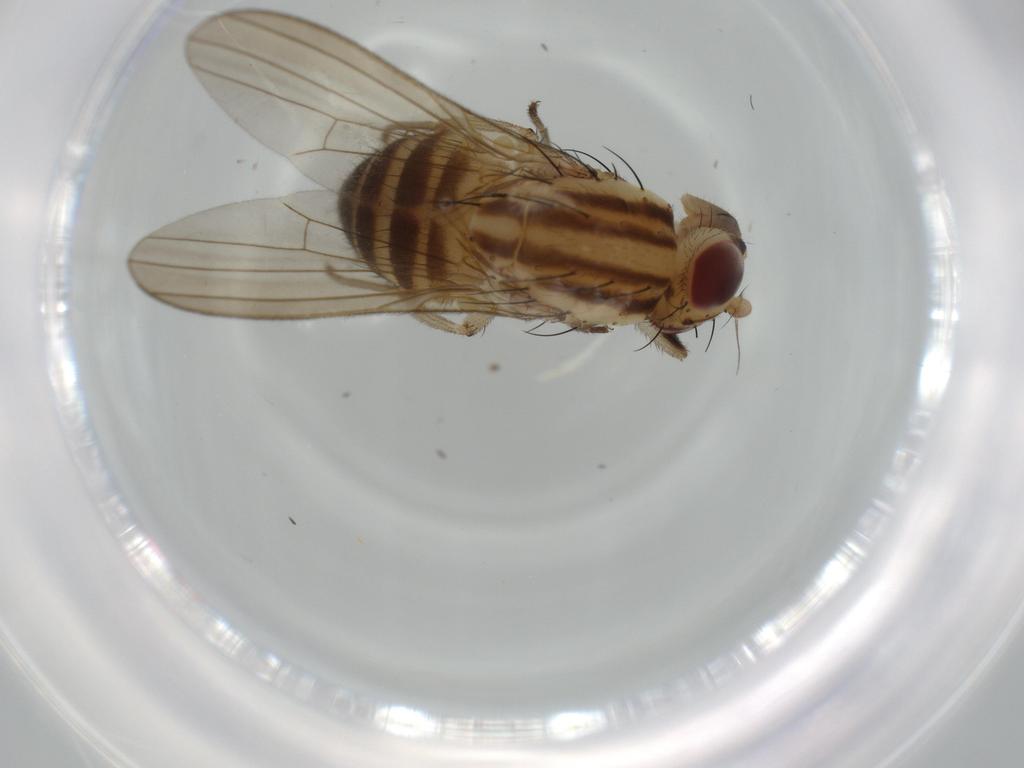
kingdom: Animalia
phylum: Arthropoda
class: Insecta
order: Diptera
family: Lauxaniidae
